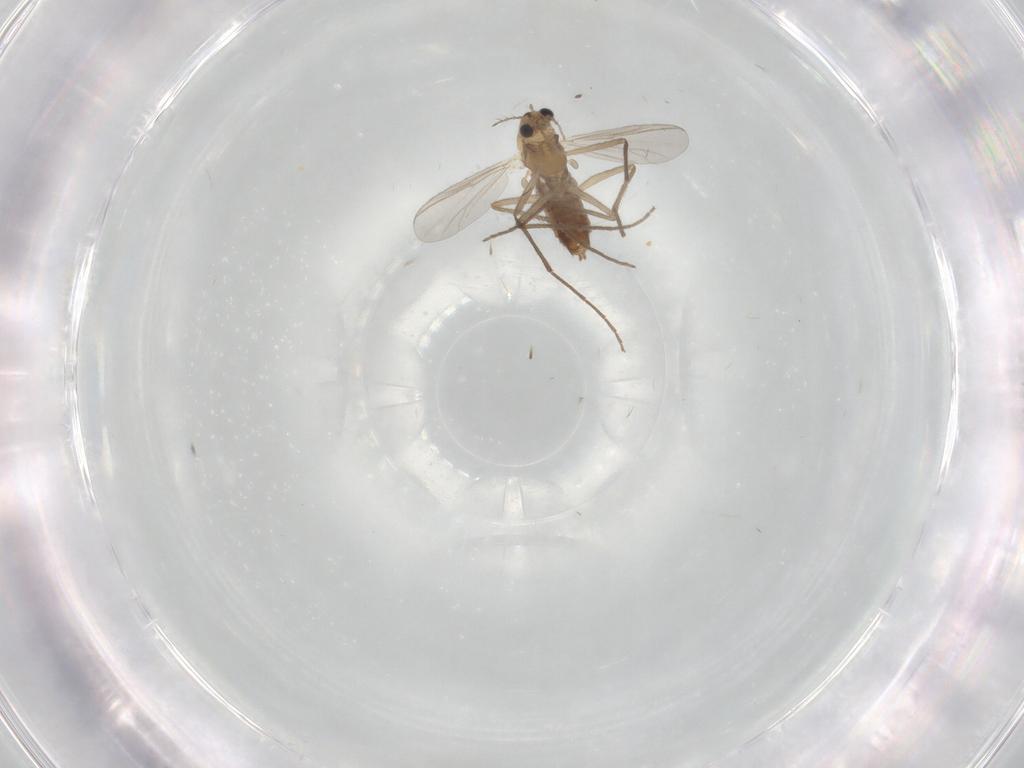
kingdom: Animalia
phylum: Arthropoda
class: Insecta
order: Diptera
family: Chironomidae
